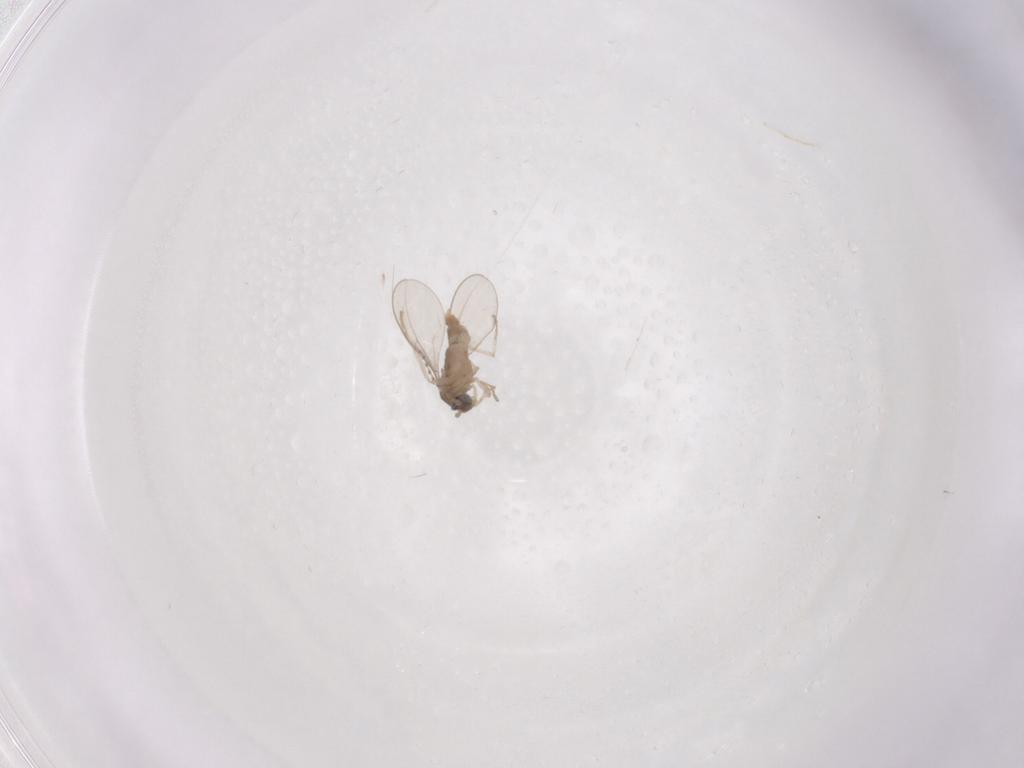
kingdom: Animalia
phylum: Arthropoda
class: Insecta
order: Diptera
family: Cecidomyiidae
